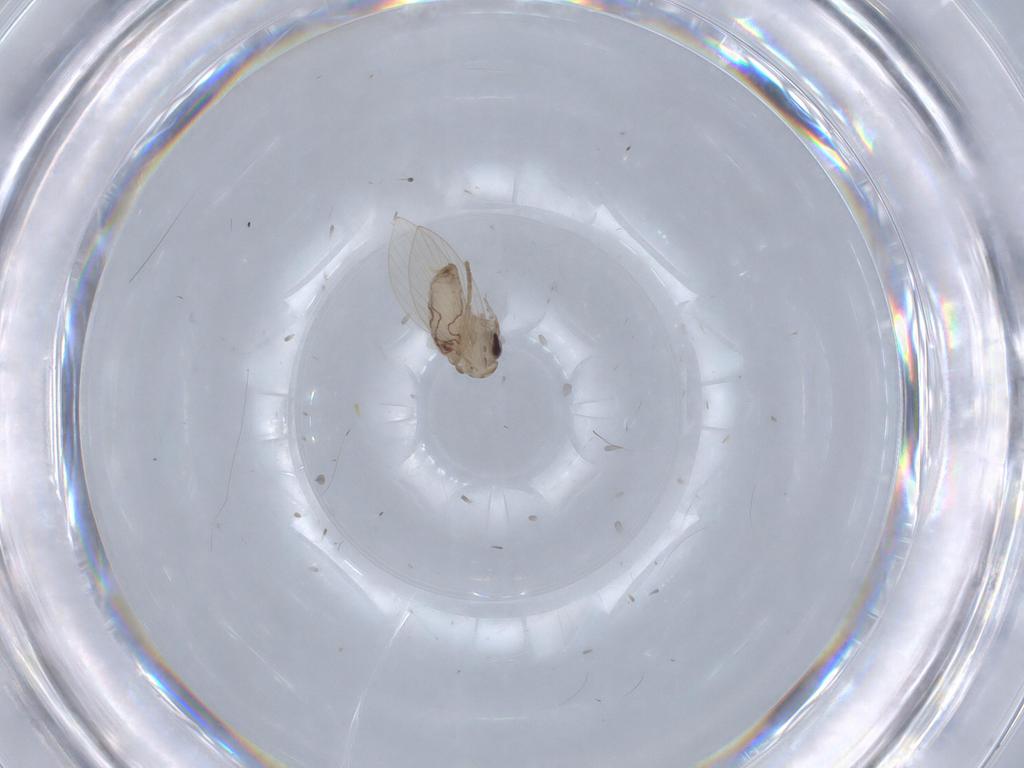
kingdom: Animalia
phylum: Arthropoda
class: Insecta
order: Diptera
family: Psychodidae
